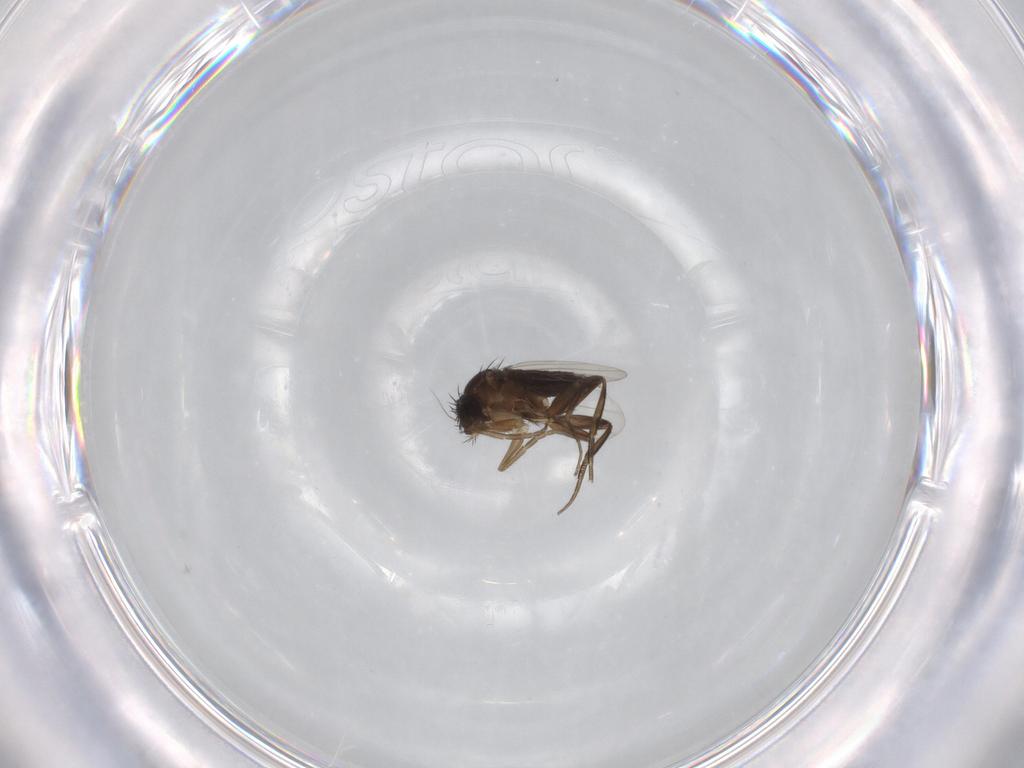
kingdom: Animalia
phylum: Arthropoda
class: Insecta
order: Diptera
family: Phoridae
